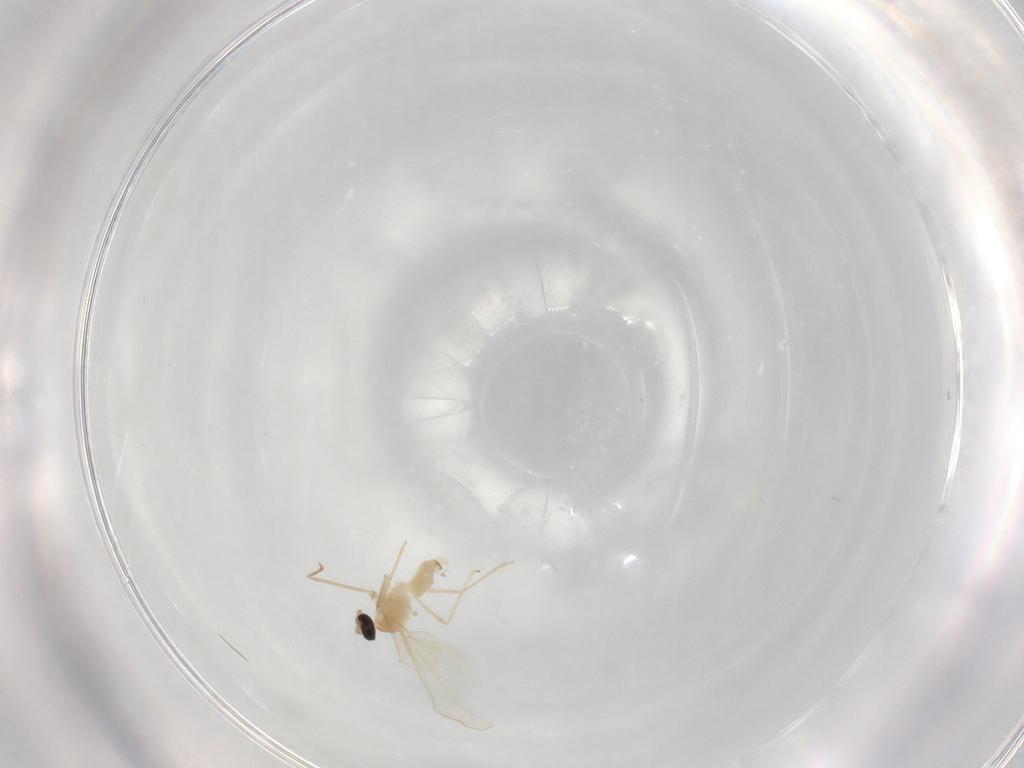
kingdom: Animalia
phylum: Arthropoda
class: Insecta
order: Diptera
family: Cecidomyiidae
